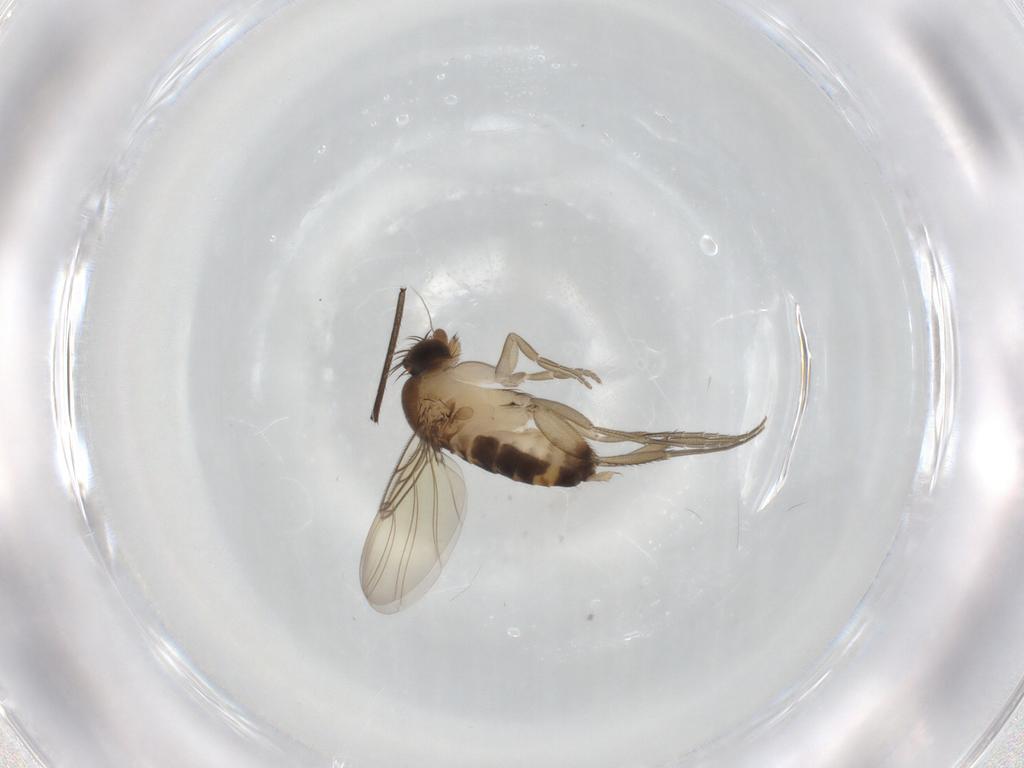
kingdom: Animalia
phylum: Arthropoda
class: Insecta
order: Diptera
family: Phoridae
